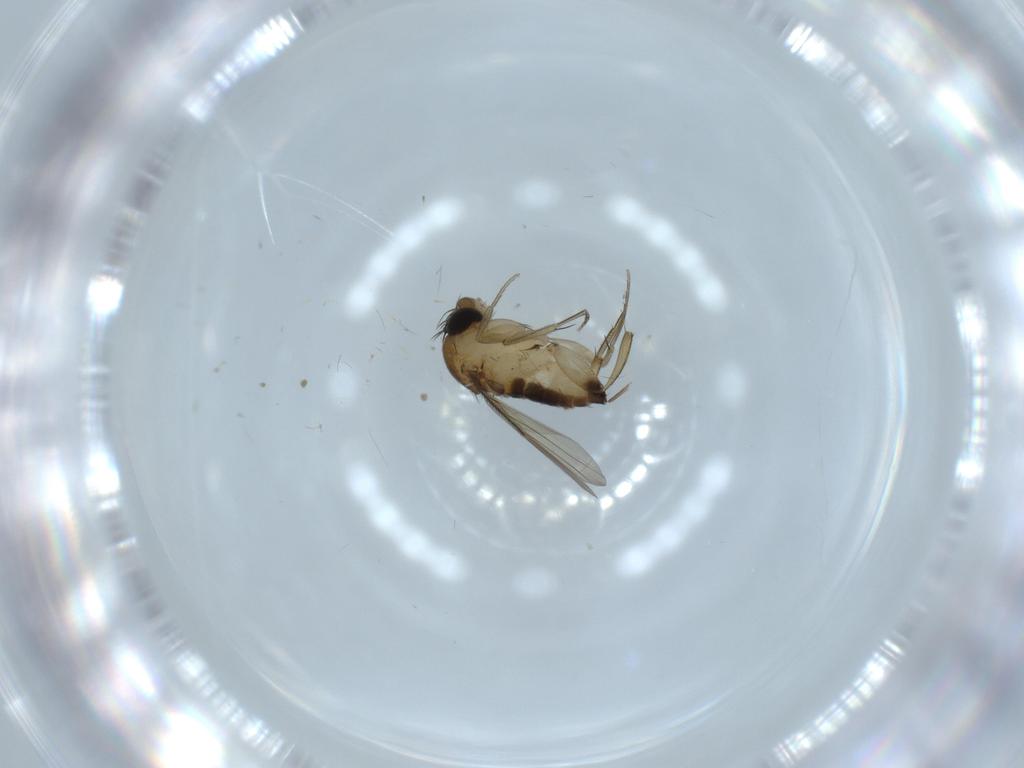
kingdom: Animalia
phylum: Arthropoda
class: Insecta
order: Diptera
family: Phoridae
